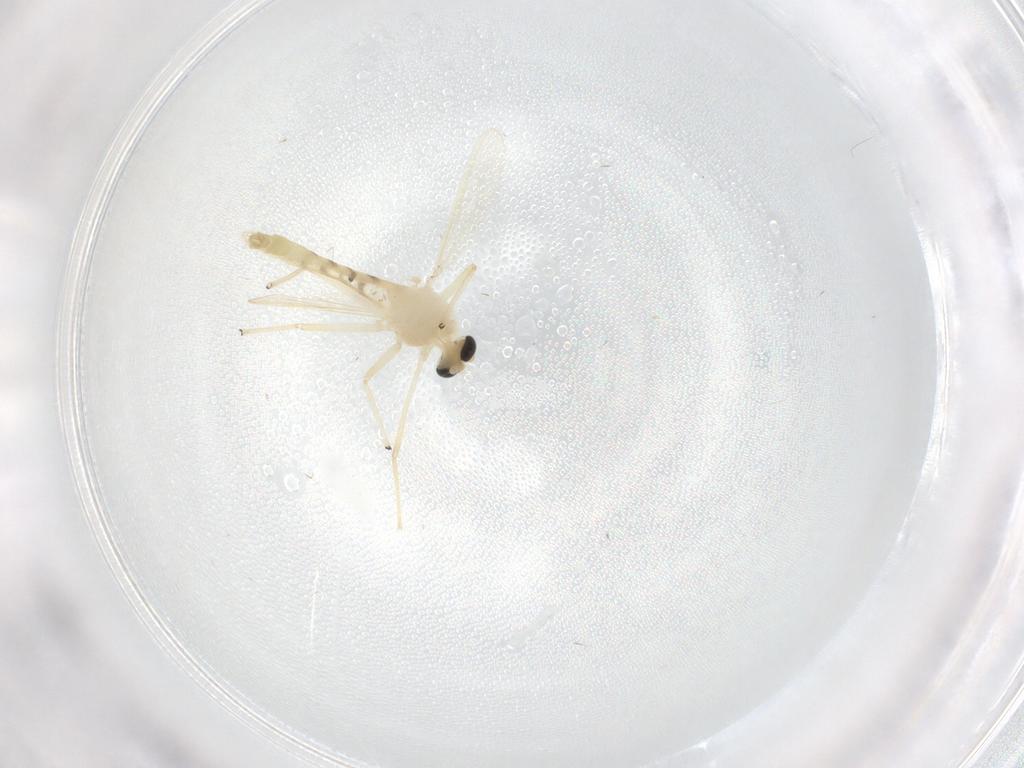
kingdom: Animalia
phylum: Arthropoda
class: Insecta
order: Diptera
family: Chironomidae
